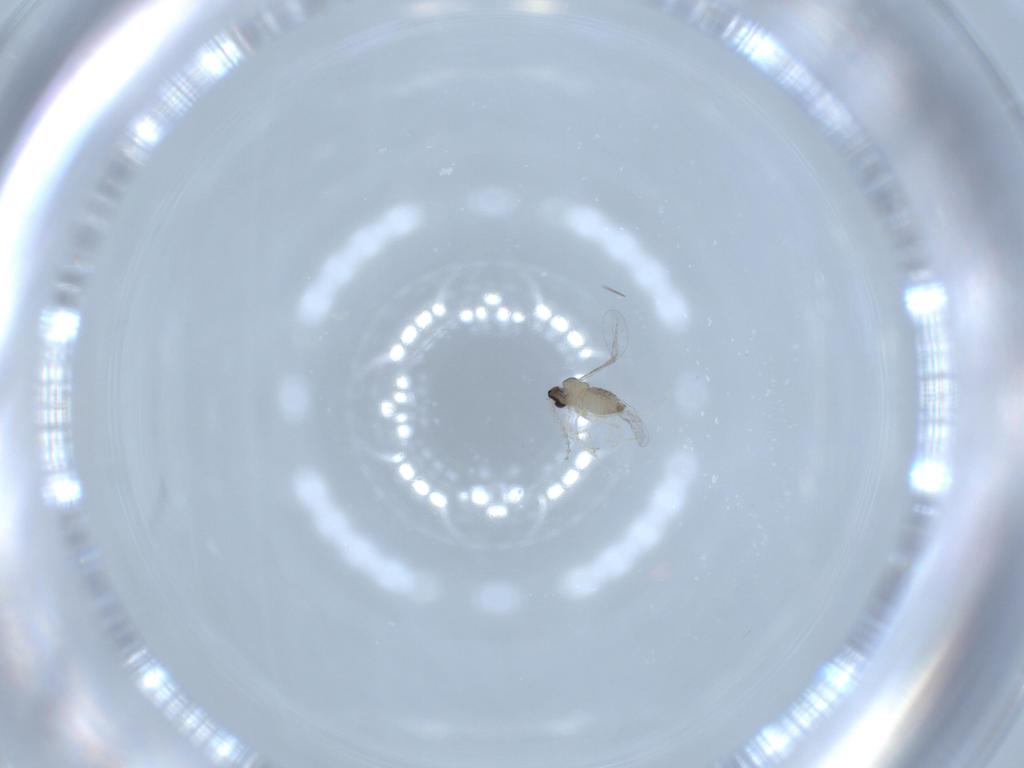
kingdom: Animalia
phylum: Arthropoda
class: Insecta
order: Diptera
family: Cecidomyiidae
